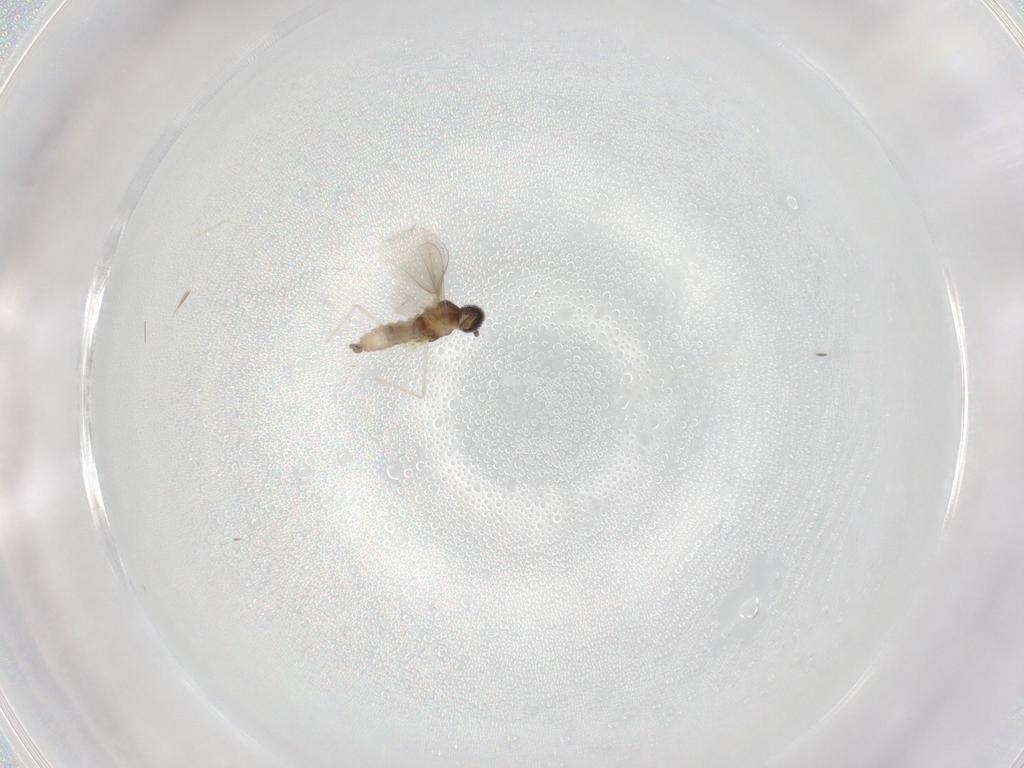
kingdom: Animalia
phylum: Arthropoda
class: Insecta
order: Diptera
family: Cecidomyiidae
